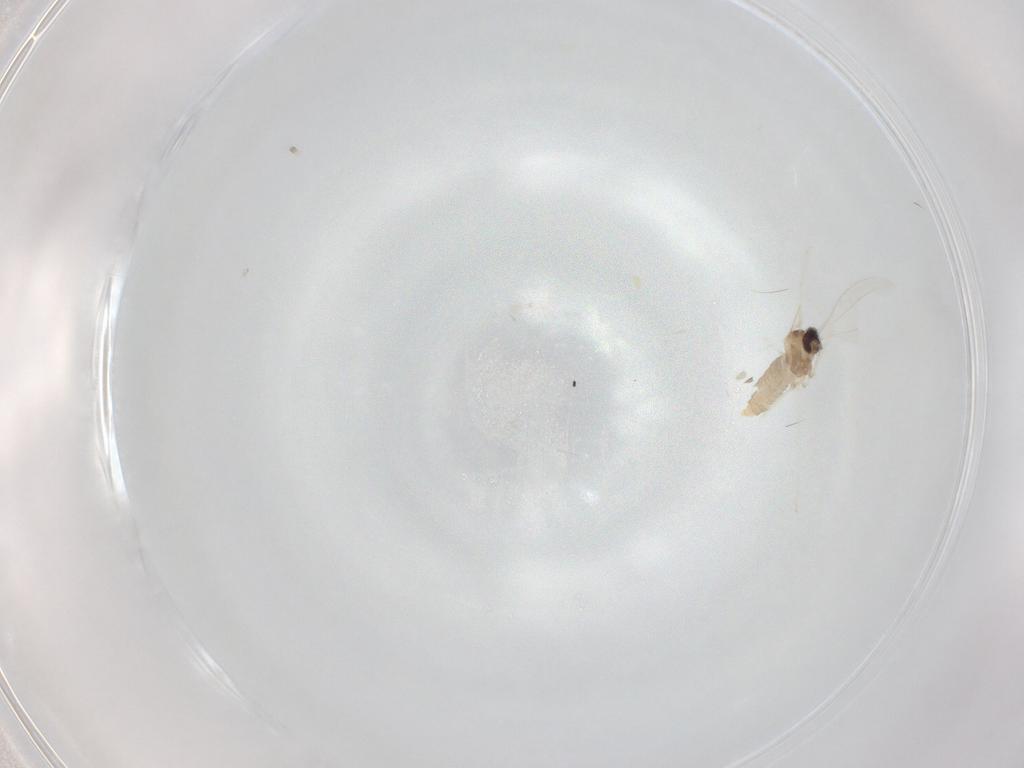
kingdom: Animalia
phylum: Arthropoda
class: Insecta
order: Diptera
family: Cecidomyiidae
